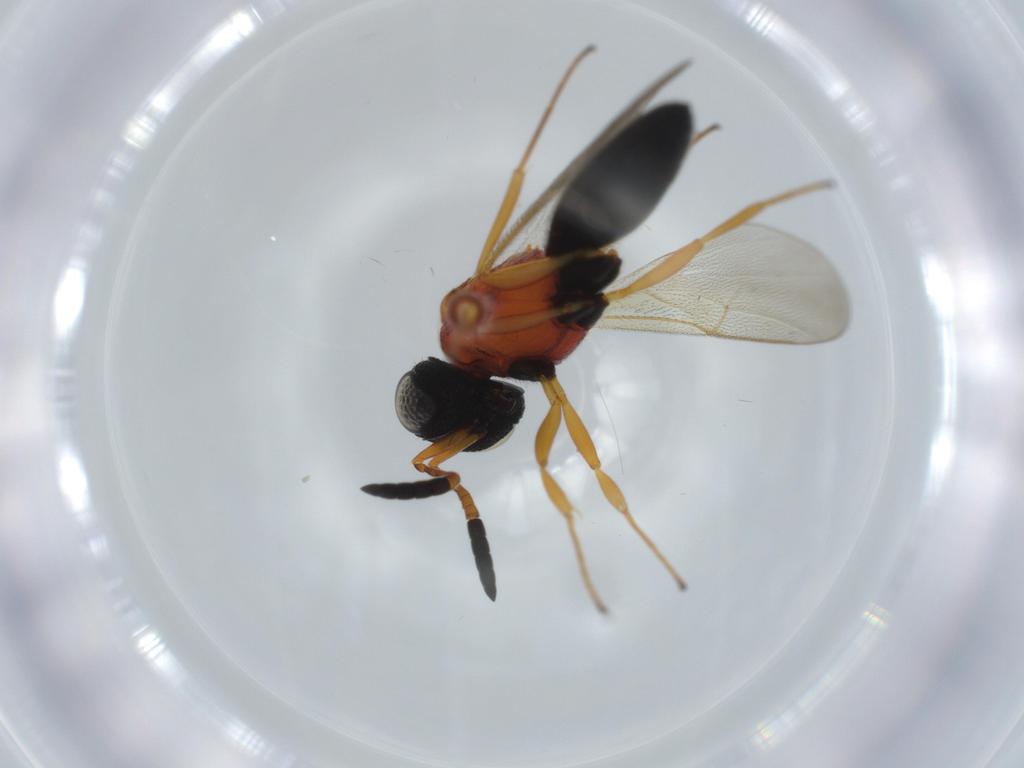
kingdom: Animalia
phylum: Arthropoda
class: Insecta
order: Hymenoptera
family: Scelionidae
